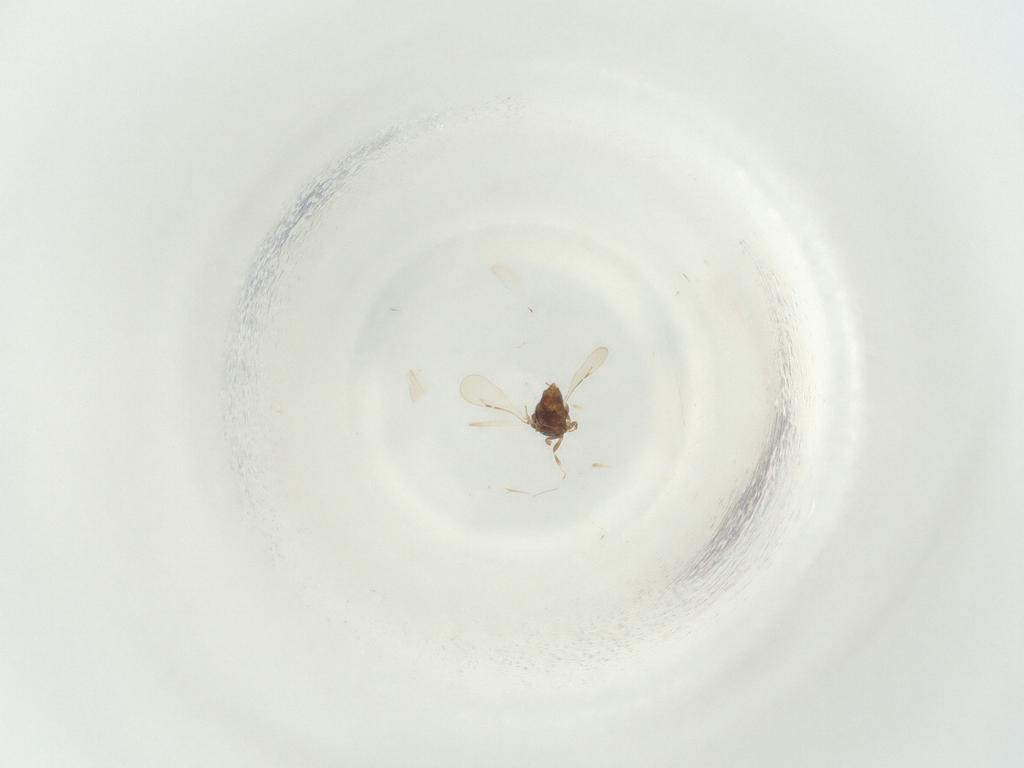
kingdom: Animalia
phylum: Arthropoda
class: Insecta
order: Diptera
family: Chironomidae
